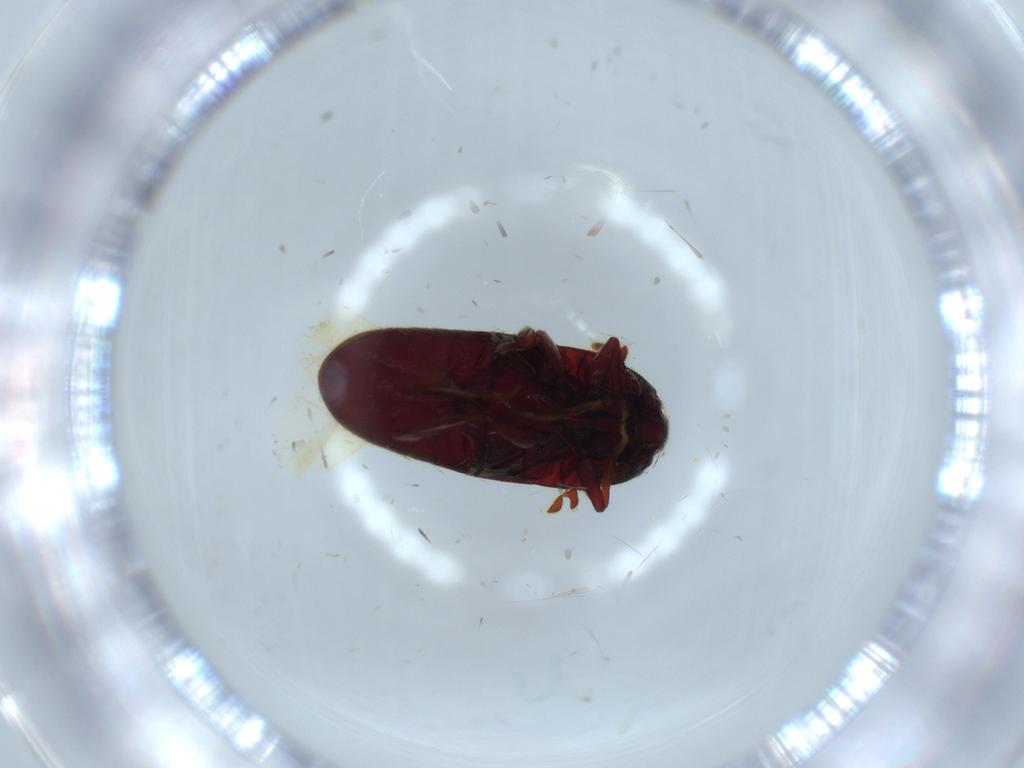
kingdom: Animalia
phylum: Arthropoda
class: Insecta
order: Coleoptera
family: Throscidae
